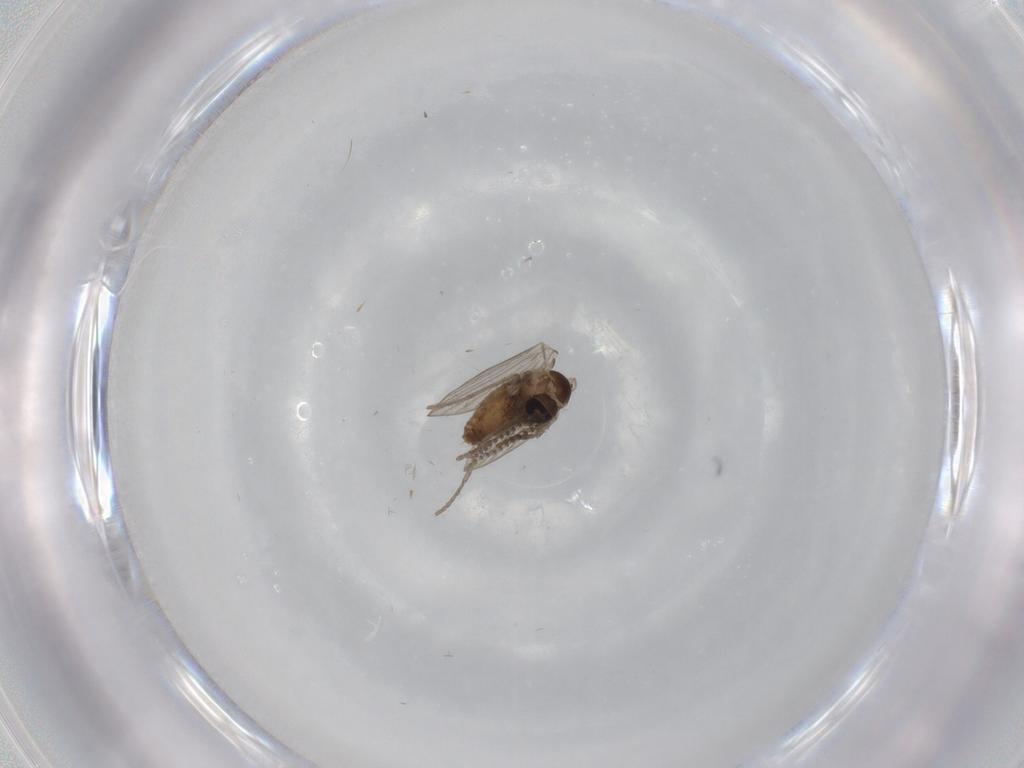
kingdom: Animalia
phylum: Arthropoda
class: Insecta
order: Diptera
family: Psychodidae
